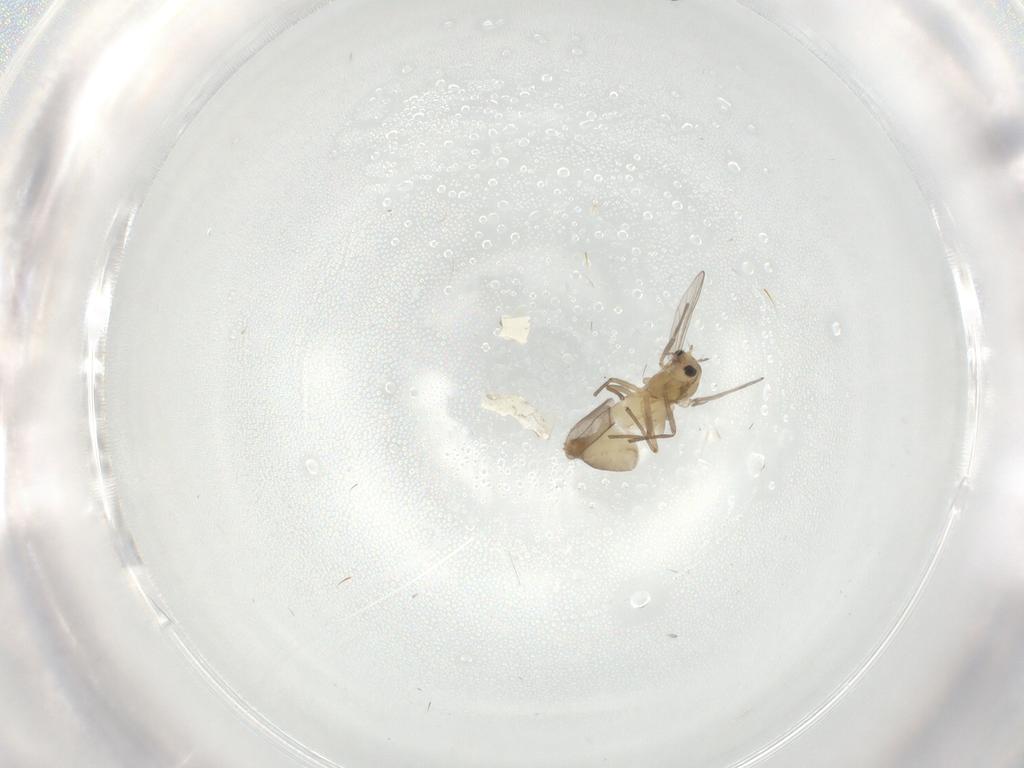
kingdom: Animalia
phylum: Arthropoda
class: Insecta
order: Diptera
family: Chironomidae
